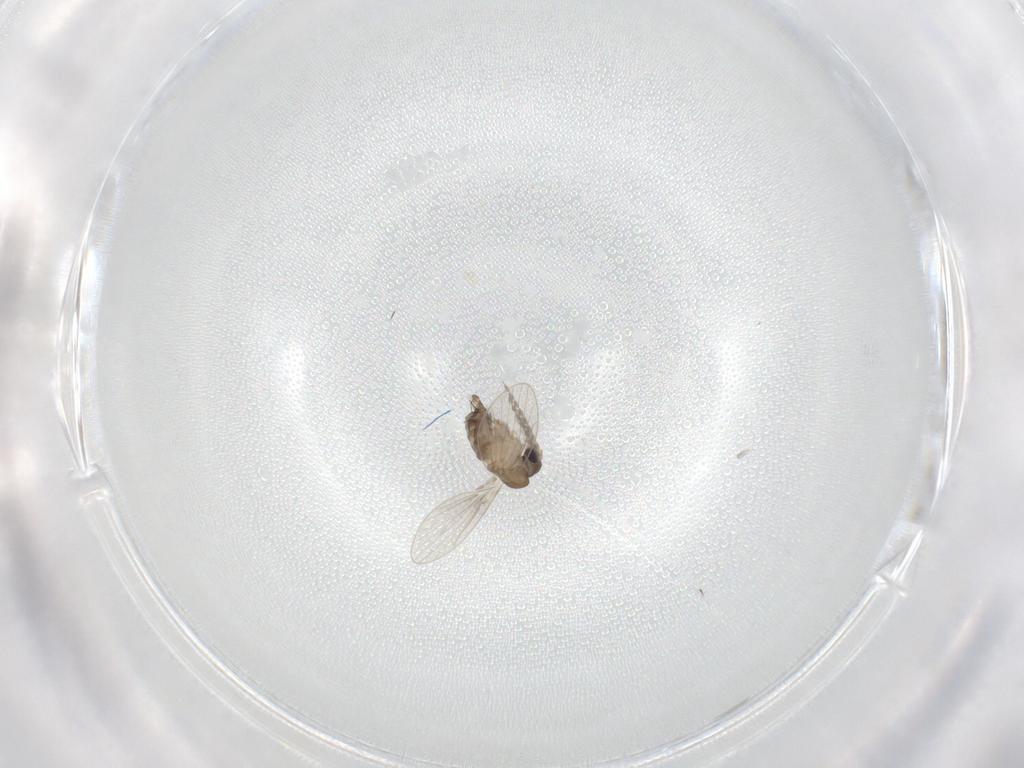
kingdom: Animalia
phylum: Arthropoda
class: Insecta
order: Diptera
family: Psychodidae
